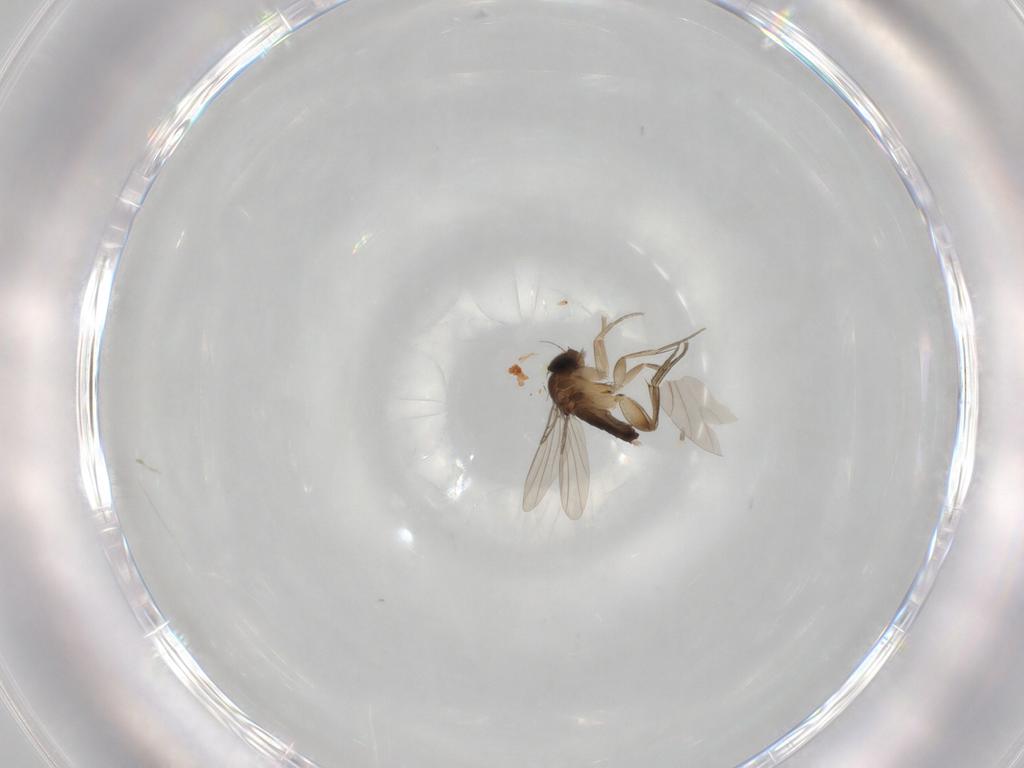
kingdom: Animalia
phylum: Arthropoda
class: Insecta
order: Diptera
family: Phoridae
